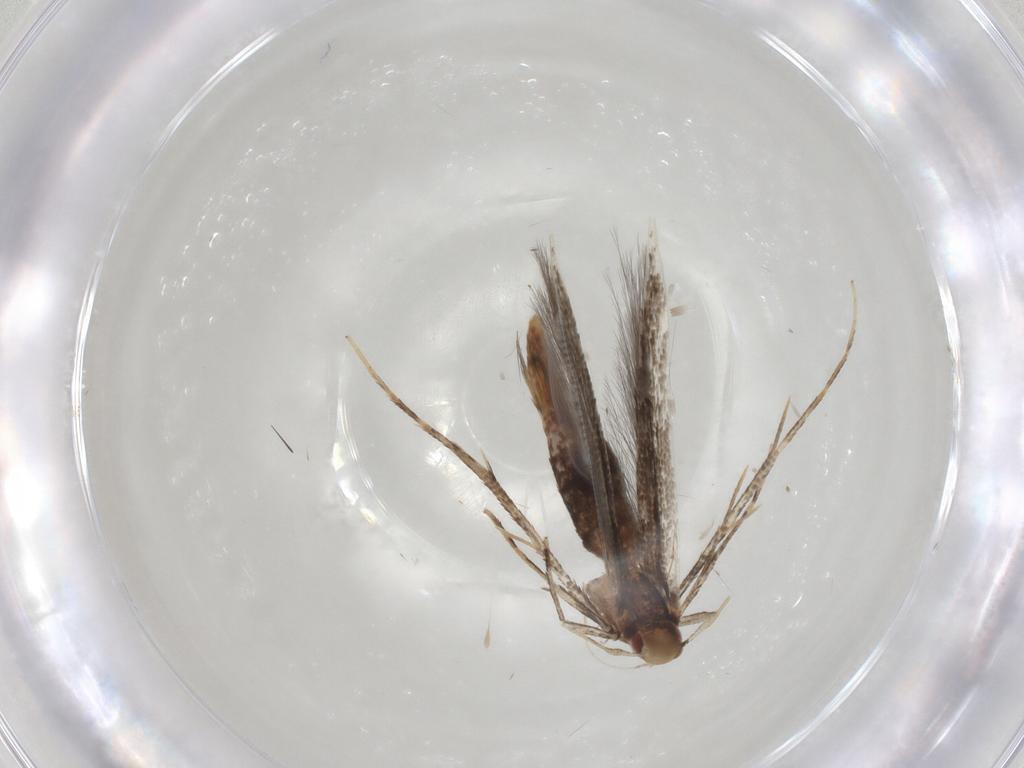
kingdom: Animalia
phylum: Arthropoda
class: Insecta
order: Lepidoptera
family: Cosmopterigidae
